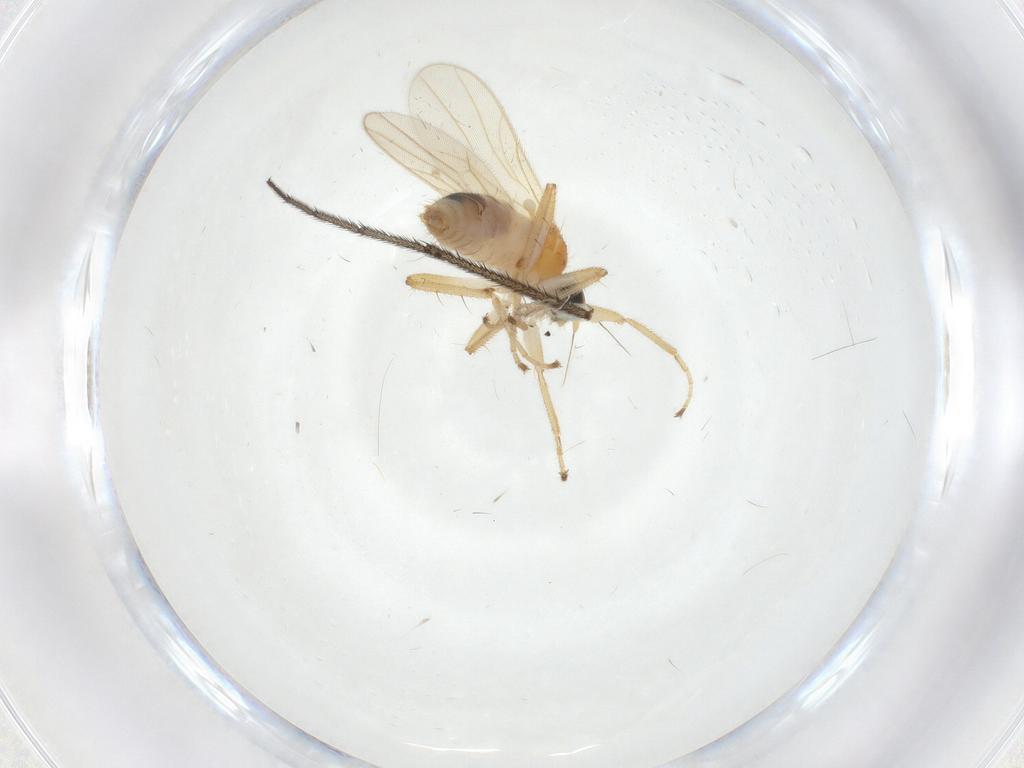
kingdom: Animalia
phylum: Arthropoda
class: Insecta
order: Diptera
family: Hybotidae
